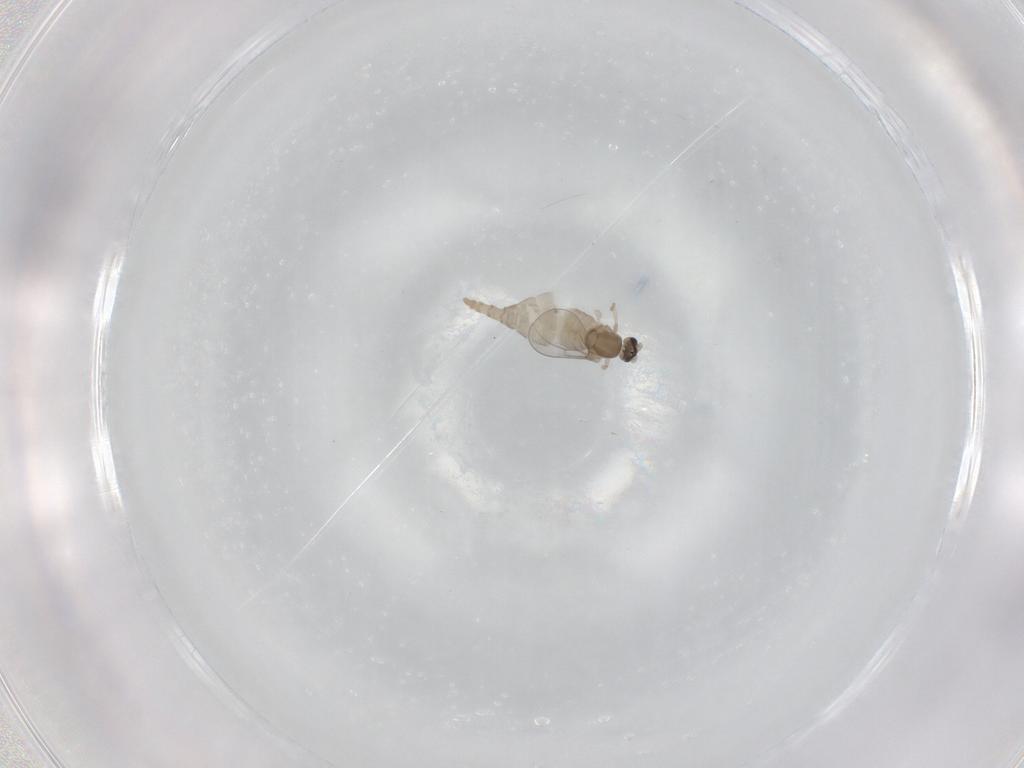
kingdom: Animalia
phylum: Arthropoda
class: Insecta
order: Diptera
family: Cecidomyiidae
